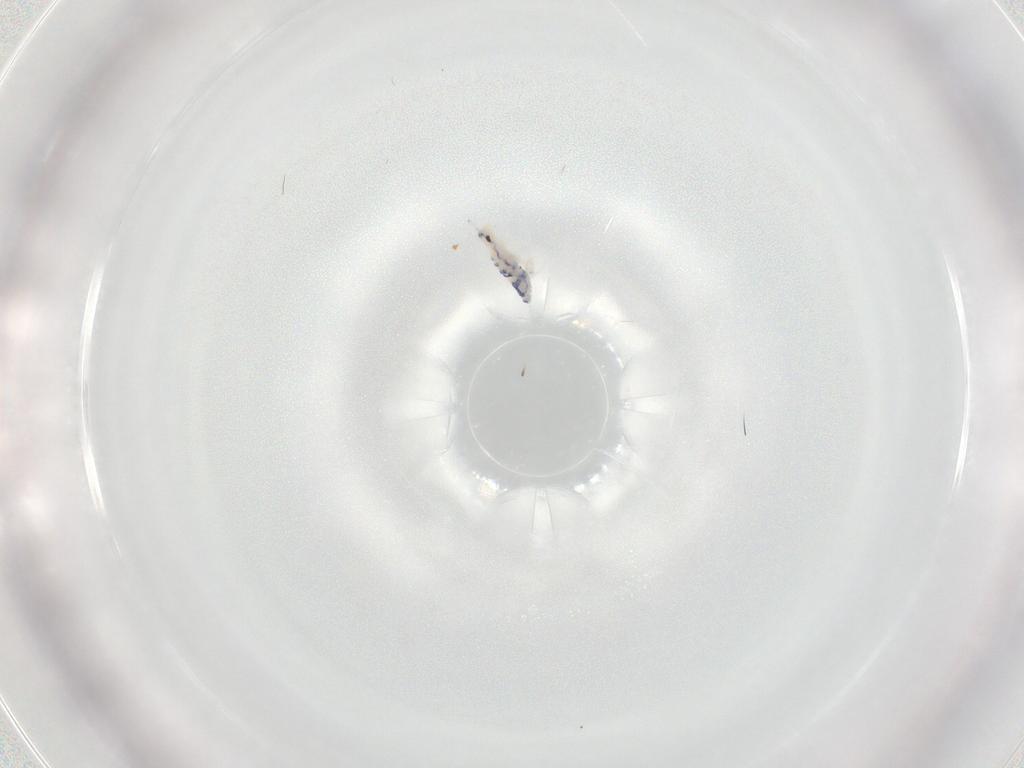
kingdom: Animalia
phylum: Arthropoda
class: Collembola
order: Entomobryomorpha
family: Entomobryidae
